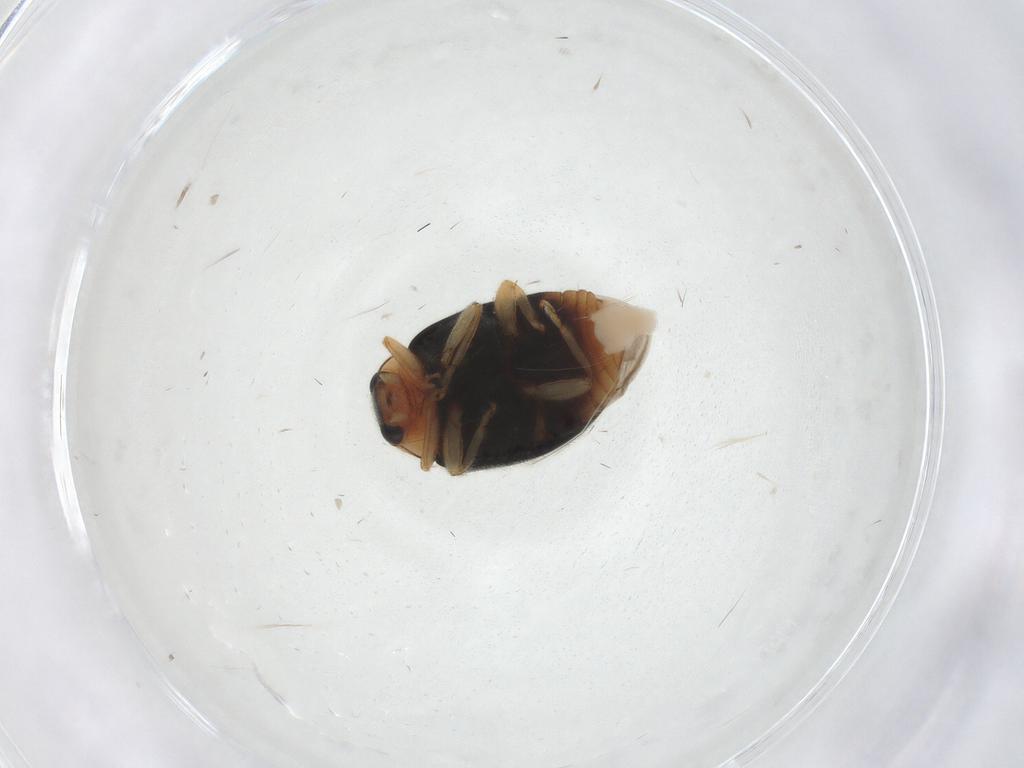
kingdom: Animalia
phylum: Arthropoda
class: Insecta
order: Coleoptera
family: Coccinellidae
